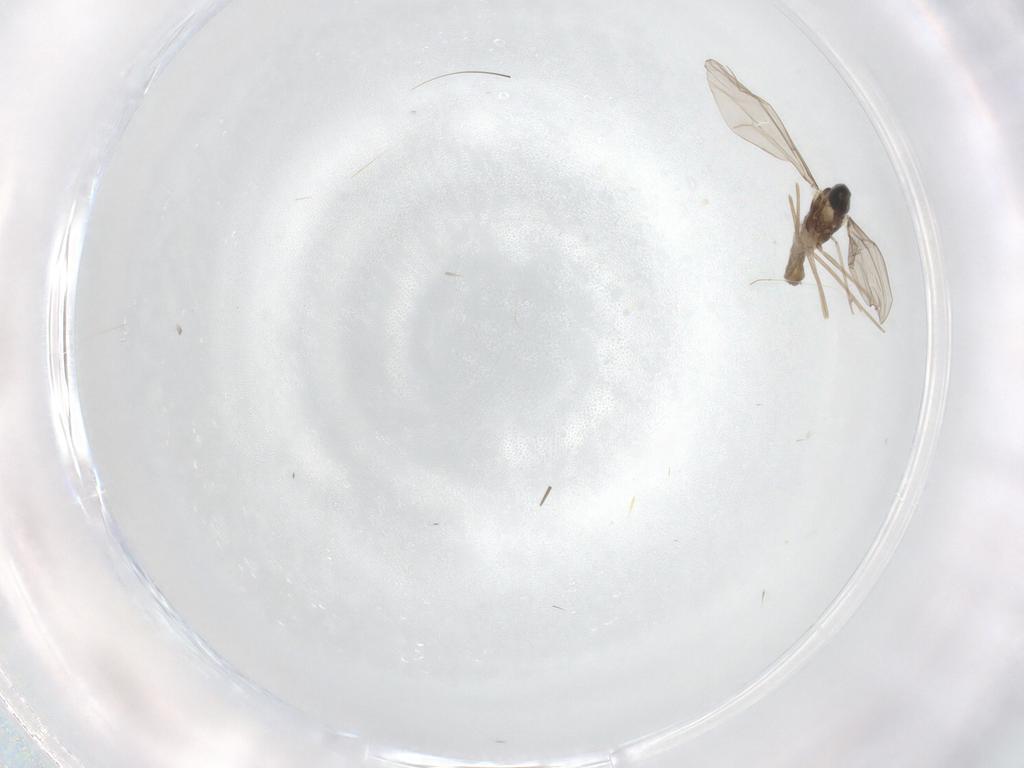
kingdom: Animalia
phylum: Arthropoda
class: Insecta
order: Diptera
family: Cecidomyiidae
